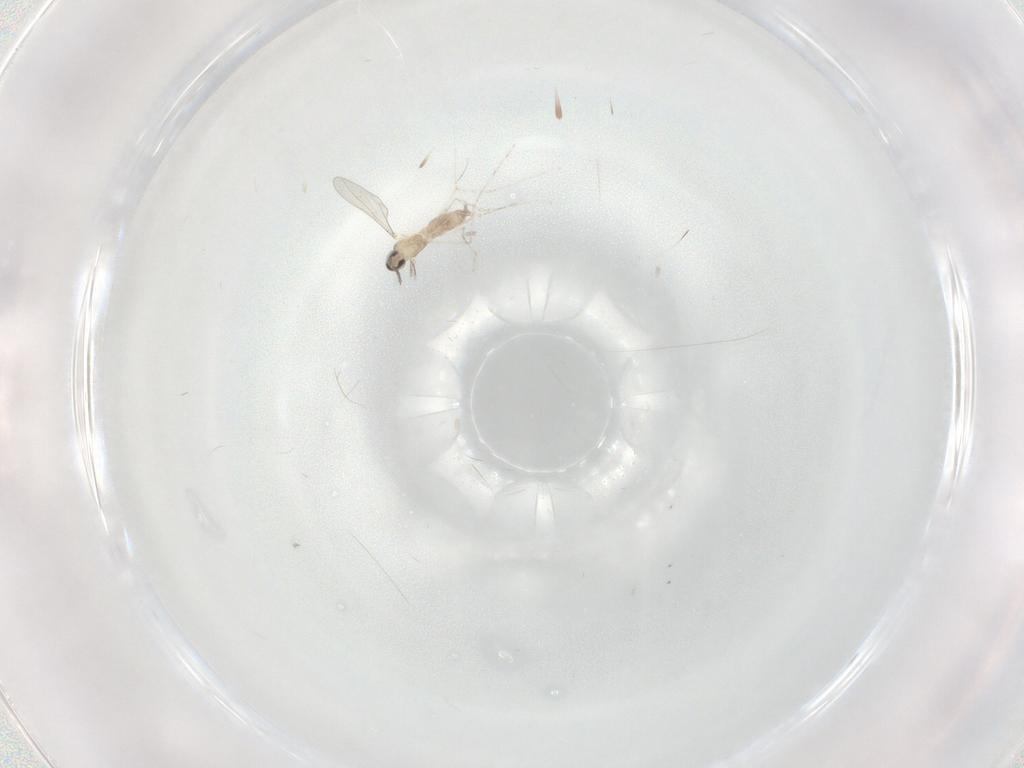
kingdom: Animalia
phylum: Arthropoda
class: Insecta
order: Diptera
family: Cecidomyiidae
